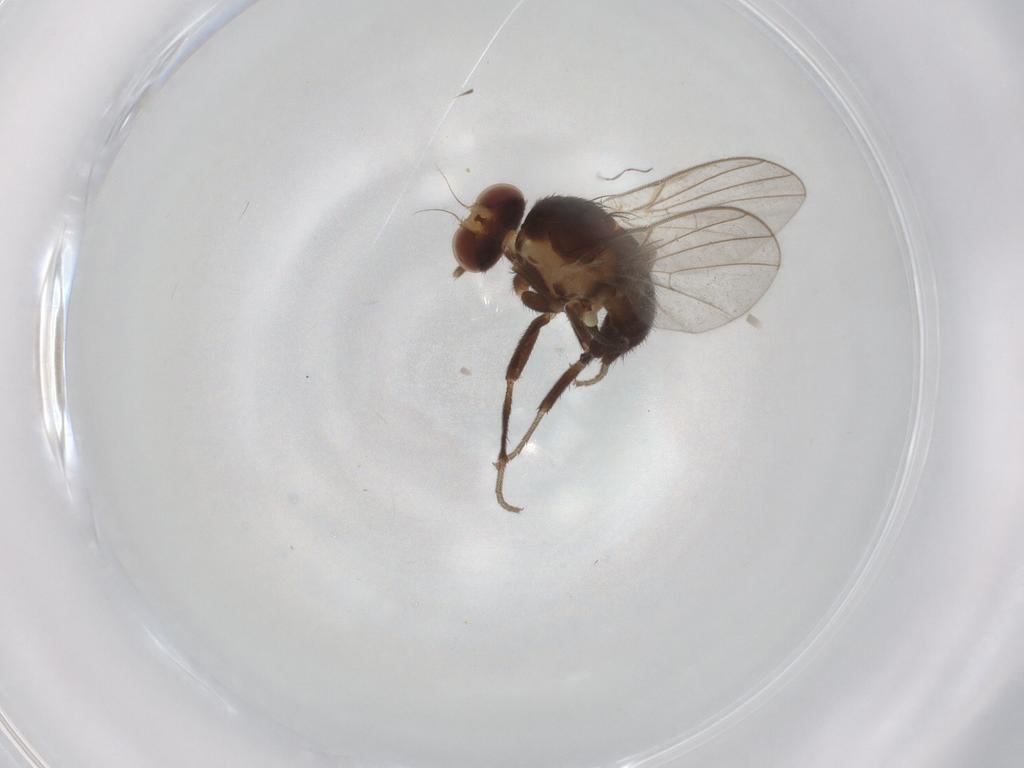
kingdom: Animalia
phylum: Arthropoda
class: Insecta
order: Diptera
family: Agromyzidae
